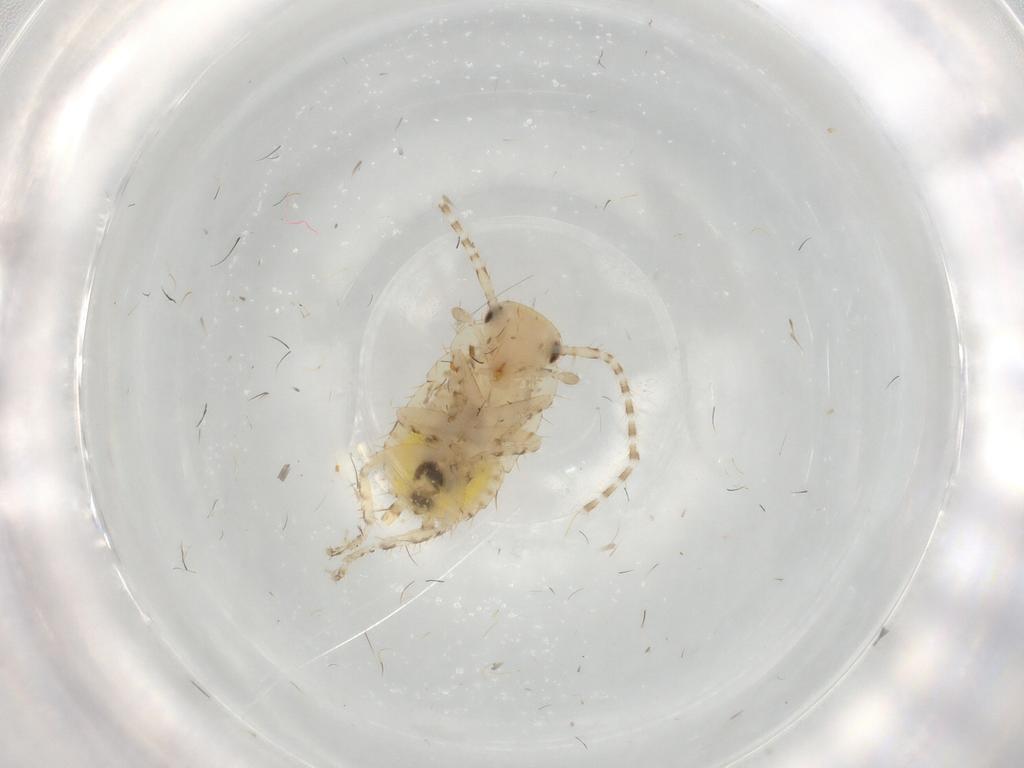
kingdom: Animalia
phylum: Arthropoda
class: Insecta
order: Blattodea
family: Ectobiidae
